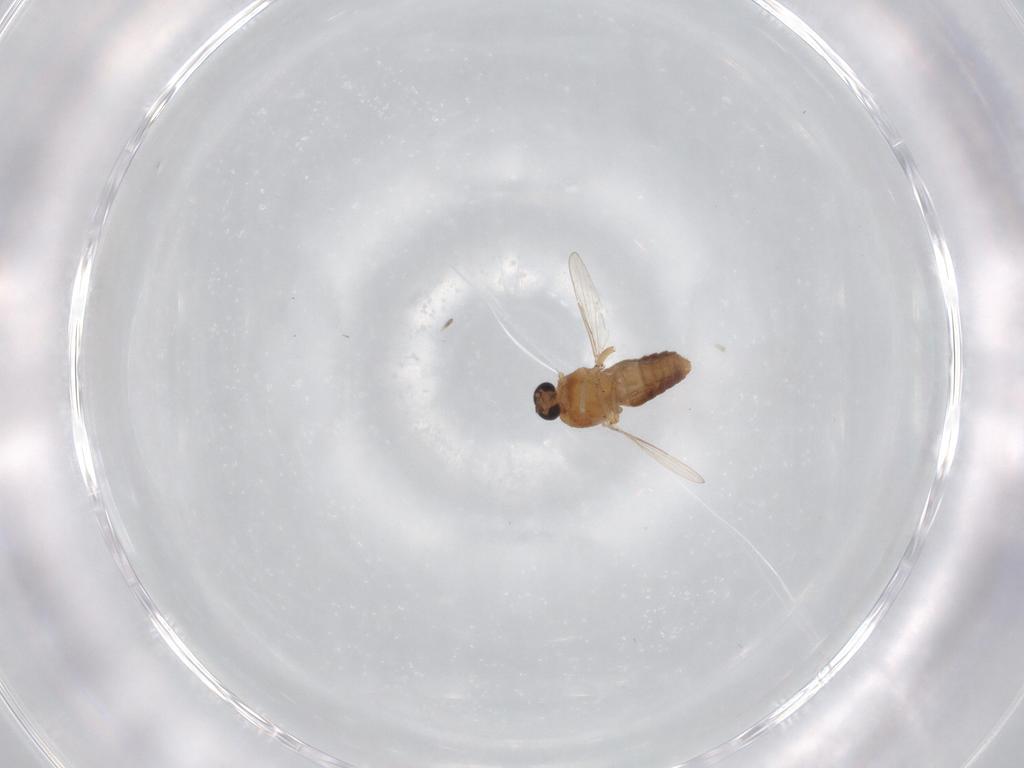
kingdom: Animalia
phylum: Arthropoda
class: Insecta
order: Diptera
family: Ceratopogonidae
